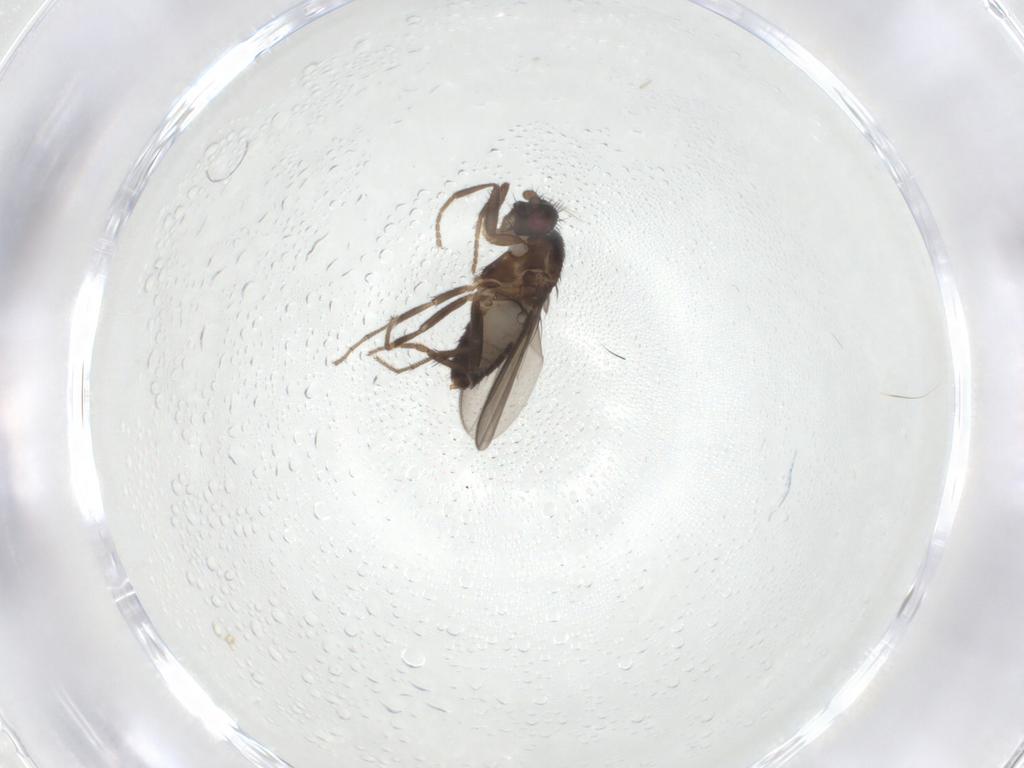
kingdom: Animalia
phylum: Arthropoda
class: Insecta
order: Diptera
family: Sphaeroceridae
